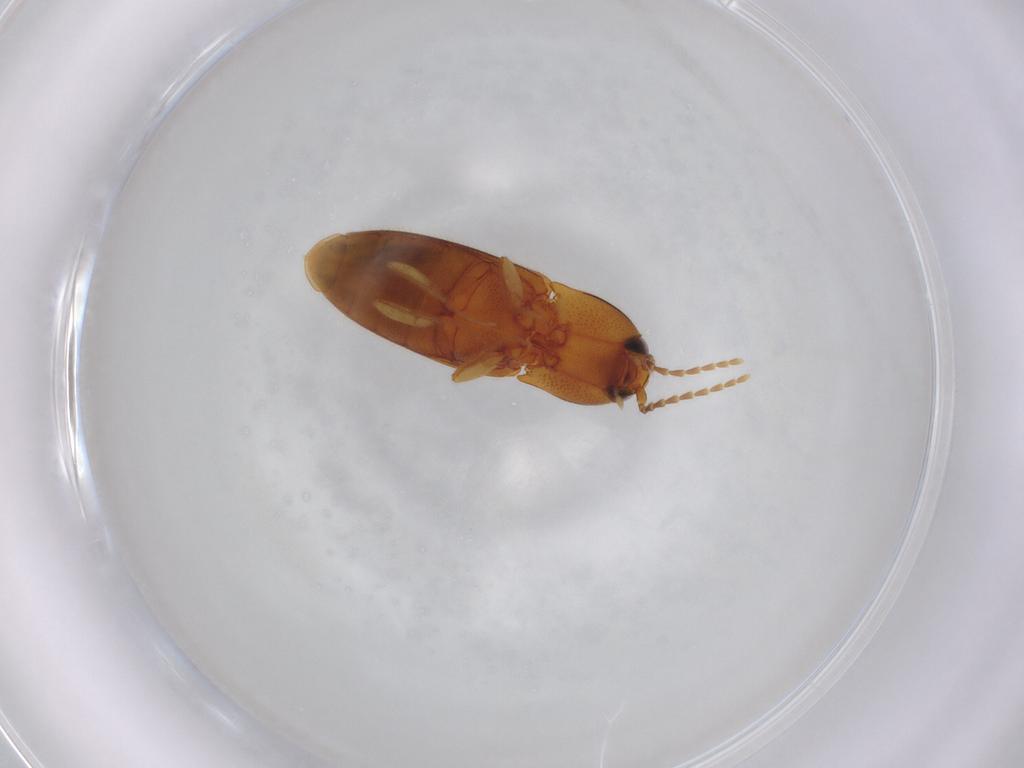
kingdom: Animalia
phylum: Arthropoda
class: Insecta
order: Coleoptera
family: Elateridae
